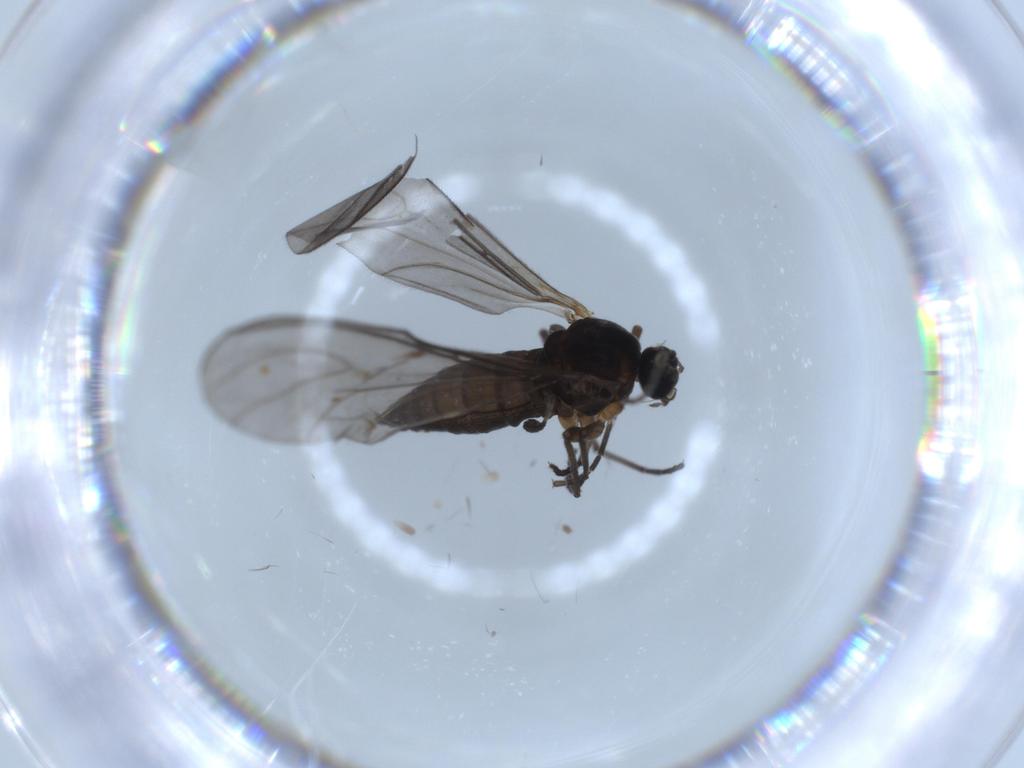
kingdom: Animalia
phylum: Arthropoda
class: Insecta
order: Diptera
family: Sciaridae
